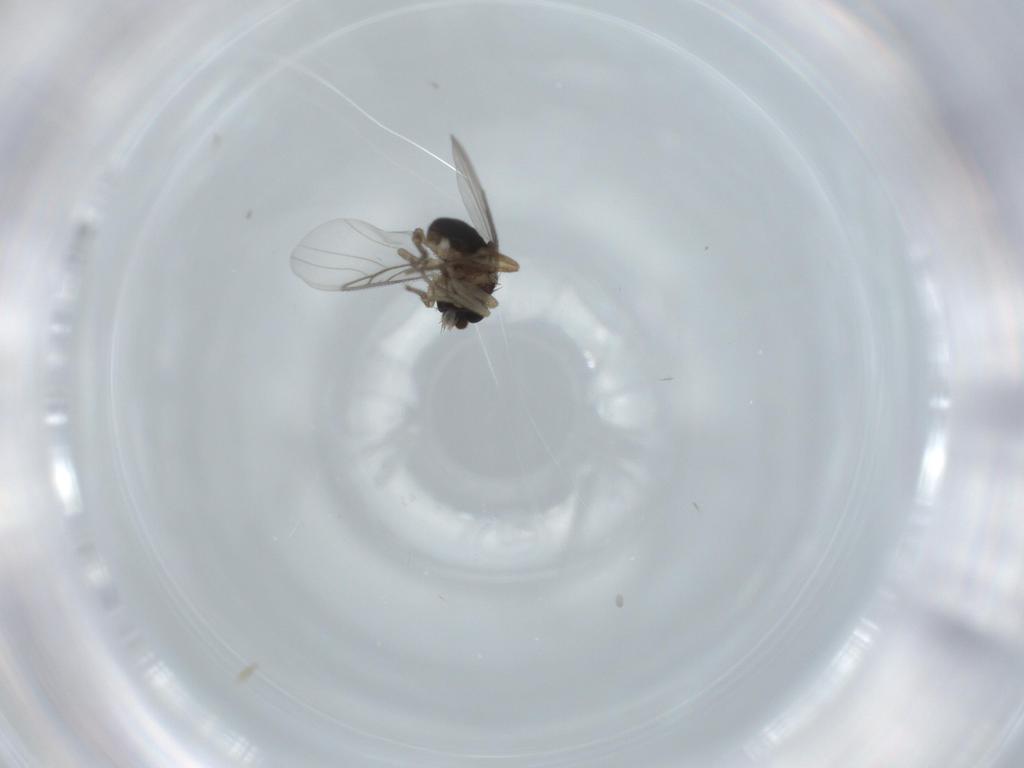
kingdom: Animalia
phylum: Arthropoda
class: Insecta
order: Diptera
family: Phoridae
